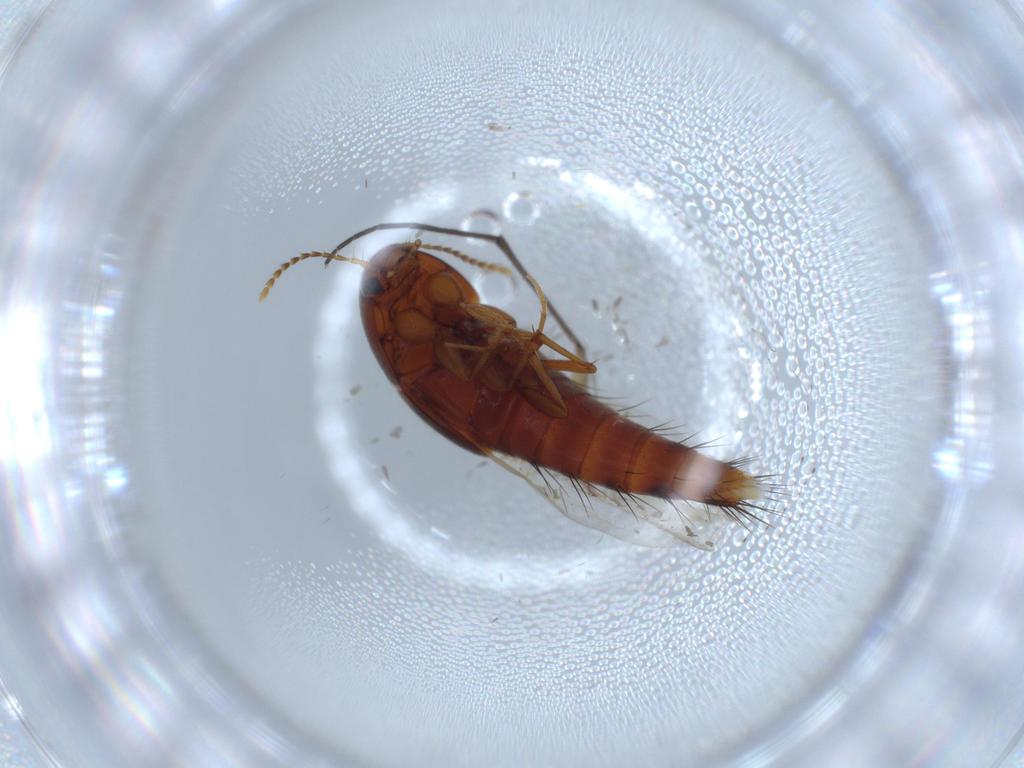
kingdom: Animalia
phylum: Arthropoda
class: Insecta
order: Coleoptera
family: Staphylinidae
